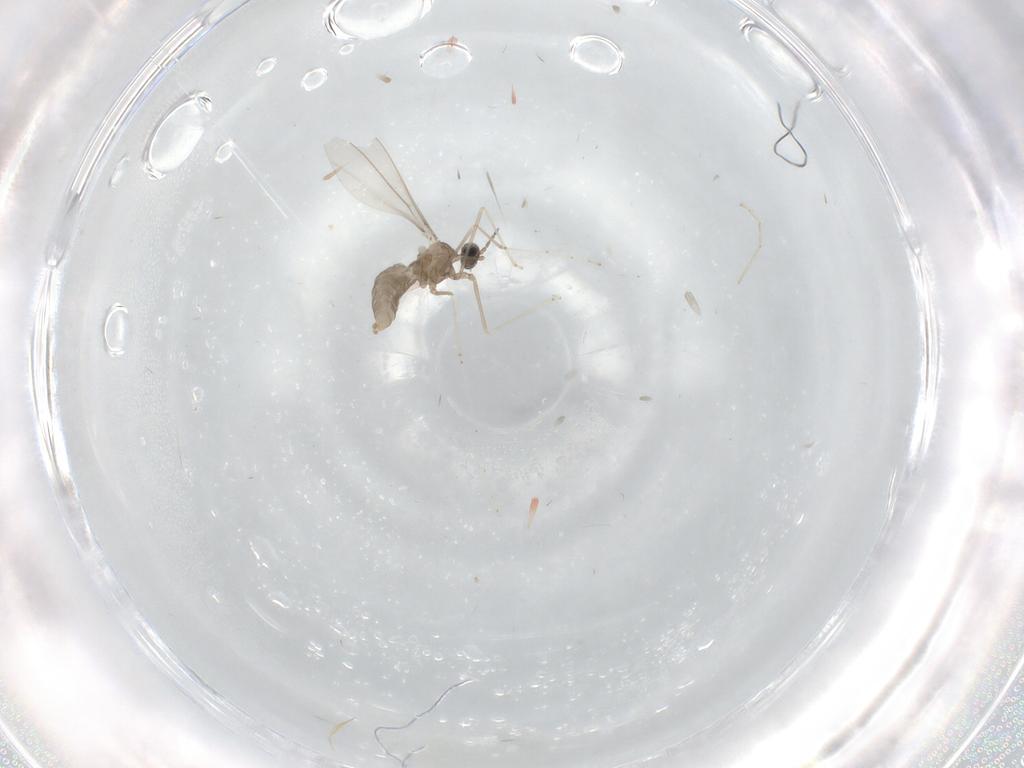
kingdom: Animalia
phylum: Arthropoda
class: Insecta
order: Diptera
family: Cecidomyiidae
